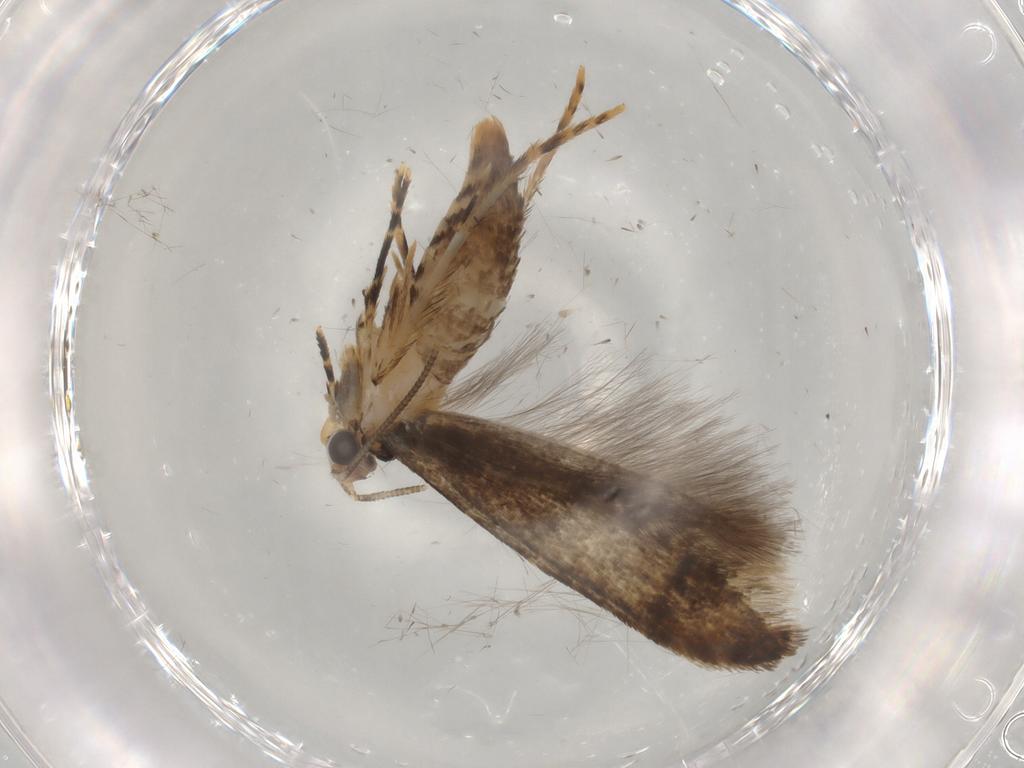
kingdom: Animalia
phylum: Arthropoda
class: Insecta
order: Lepidoptera
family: Tineidae
